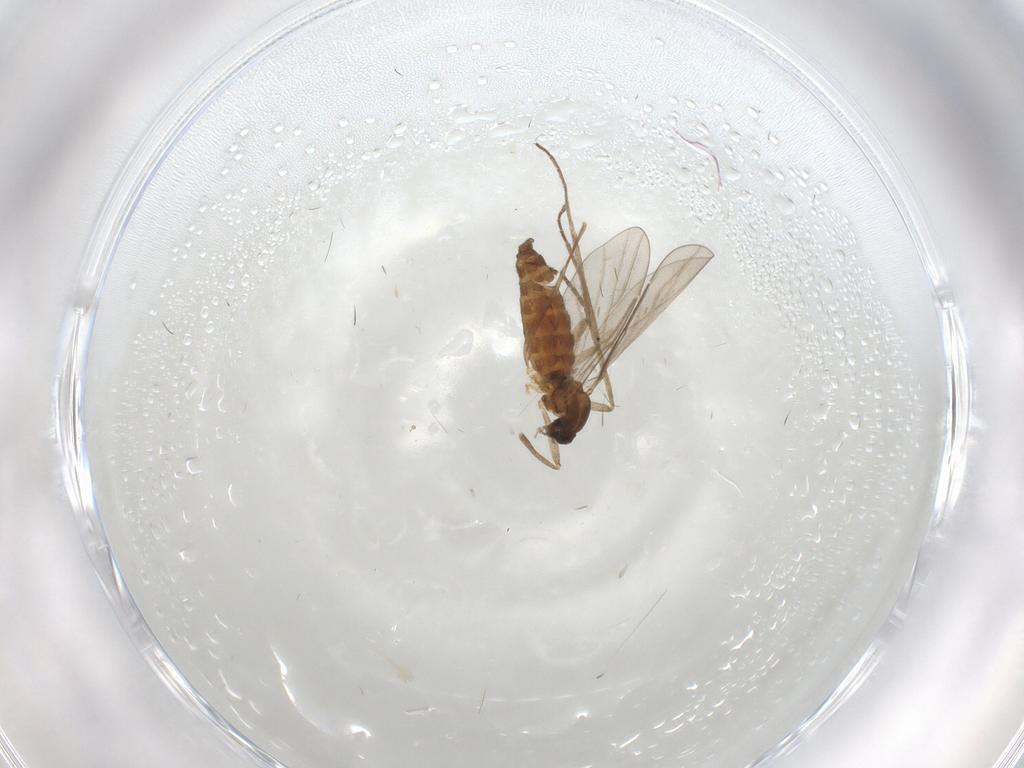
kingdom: Animalia
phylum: Arthropoda
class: Insecta
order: Diptera
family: Cecidomyiidae
